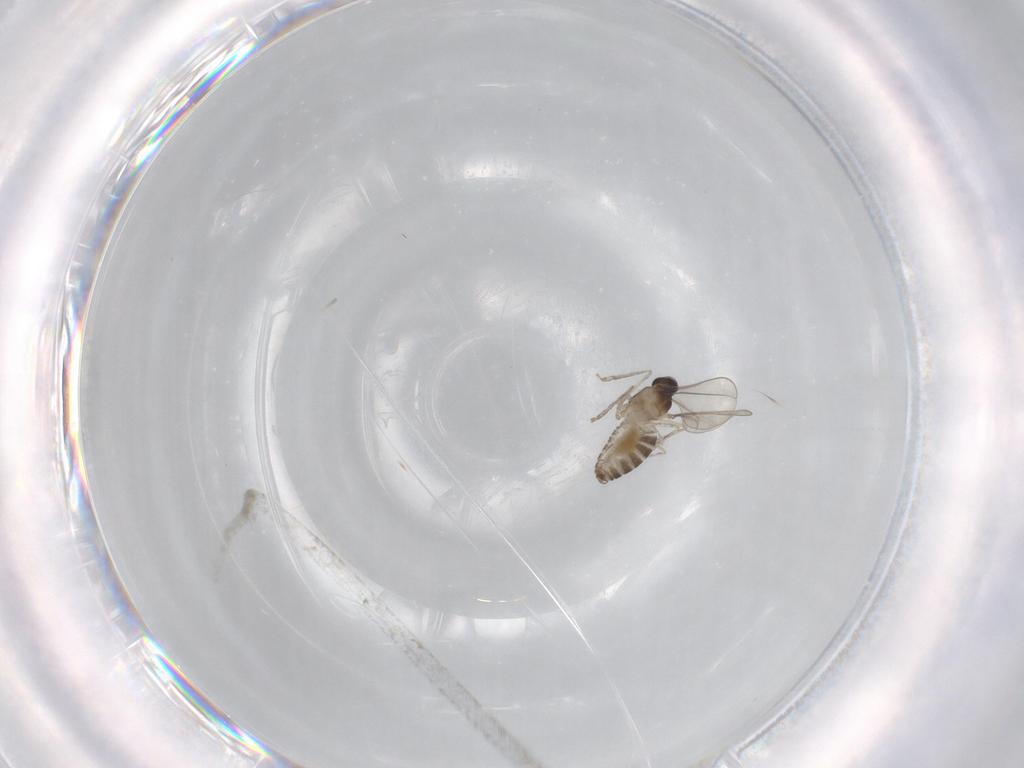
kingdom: Animalia
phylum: Arthropoda
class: Insecta
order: Diptera
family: Cecidomyiidae
